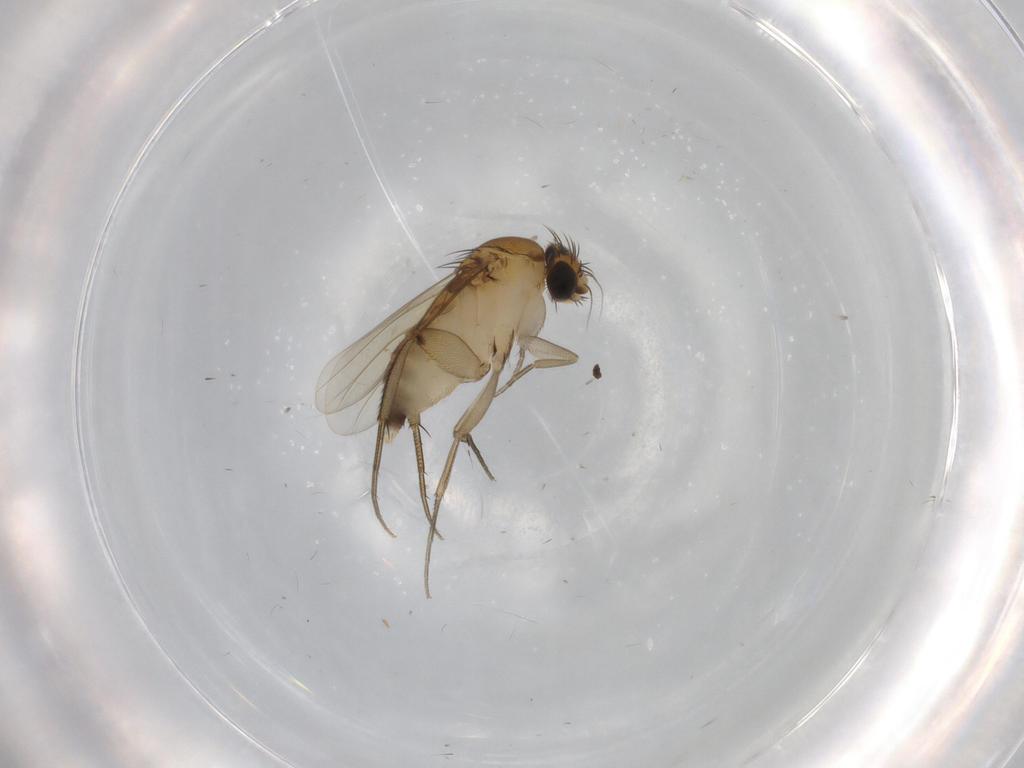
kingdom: Animalia
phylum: Arthropoda
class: Insecta
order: Diptera
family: Phoridae
